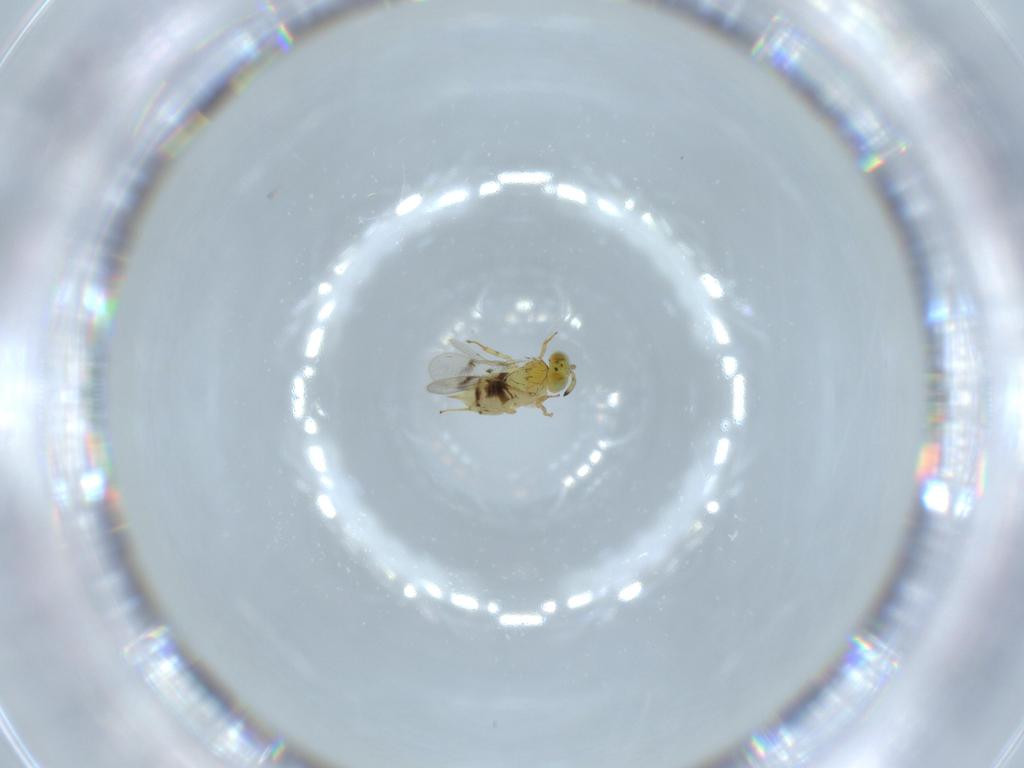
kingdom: Animalia
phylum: Arthropoda
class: Insecta
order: Hymenoptera
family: Aphelinidae
